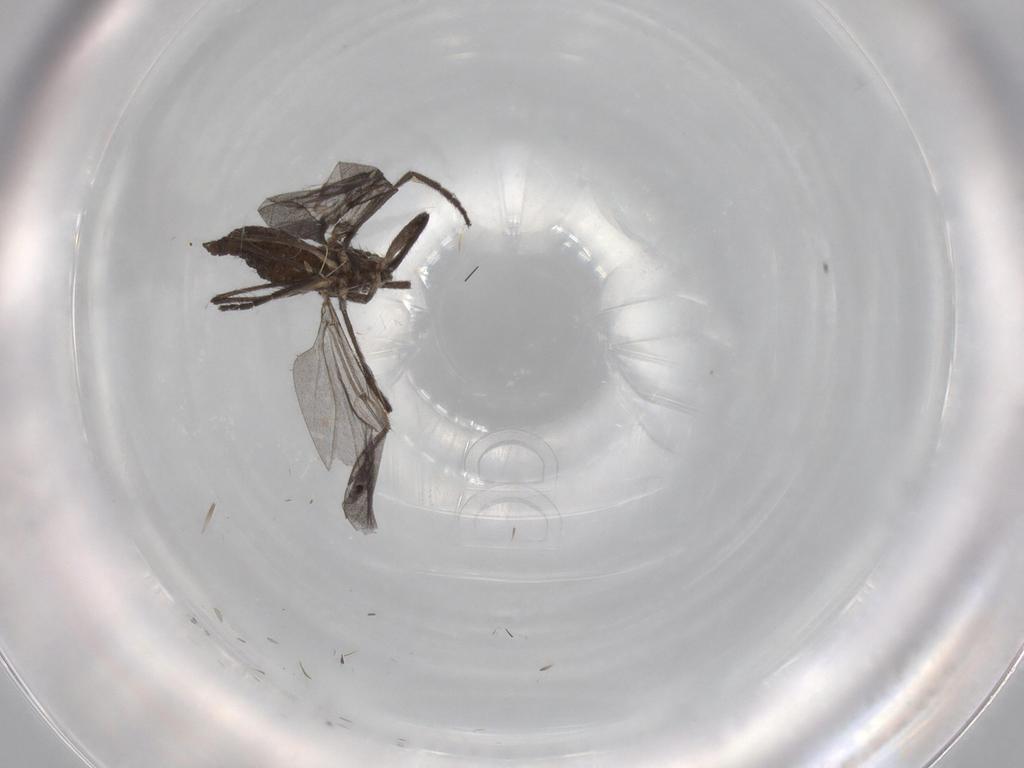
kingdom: Animalia
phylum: Arthropoda
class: Insecta
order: Diptera
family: Cecidomyiidae
